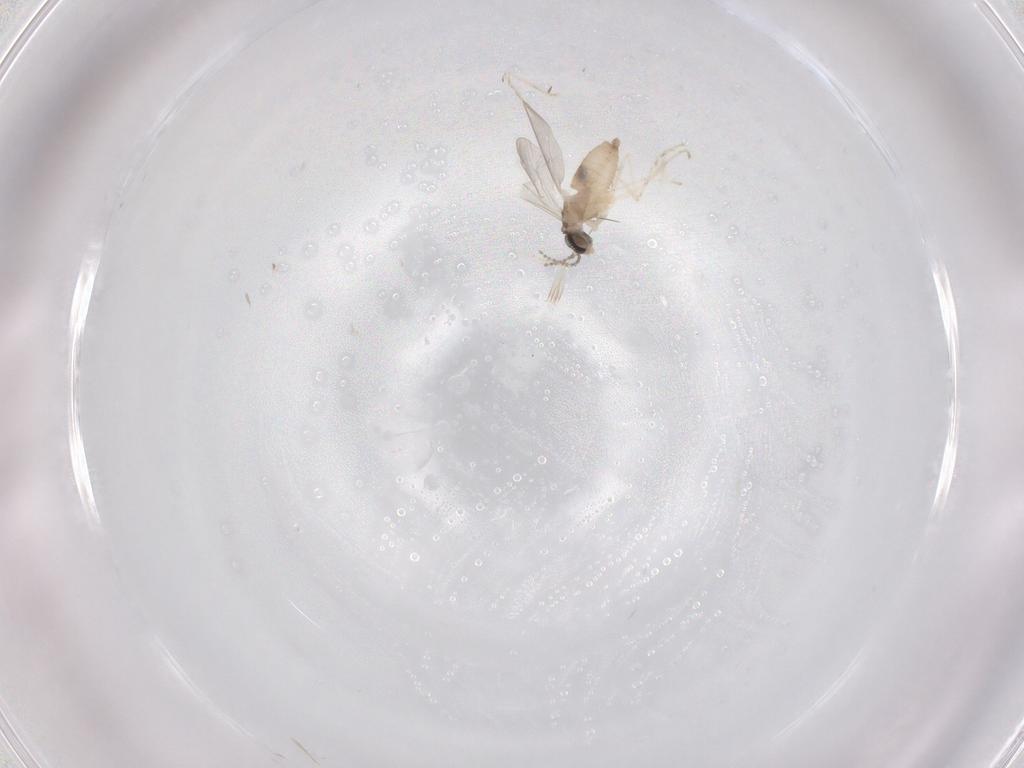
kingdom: Animalia
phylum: Arthropoda
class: Insecta
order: Diptera
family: Cecidomyiidae
